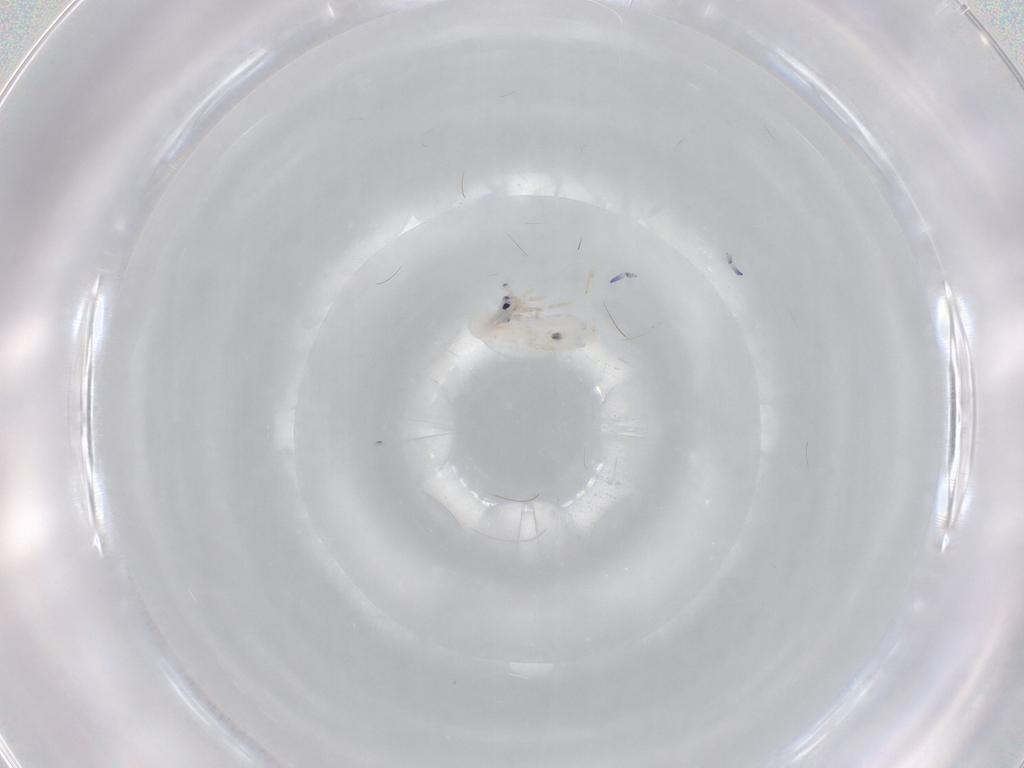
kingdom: Animalia
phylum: Arthropoda
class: Collembola
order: Entomobryomorpha
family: Entomobryidae
